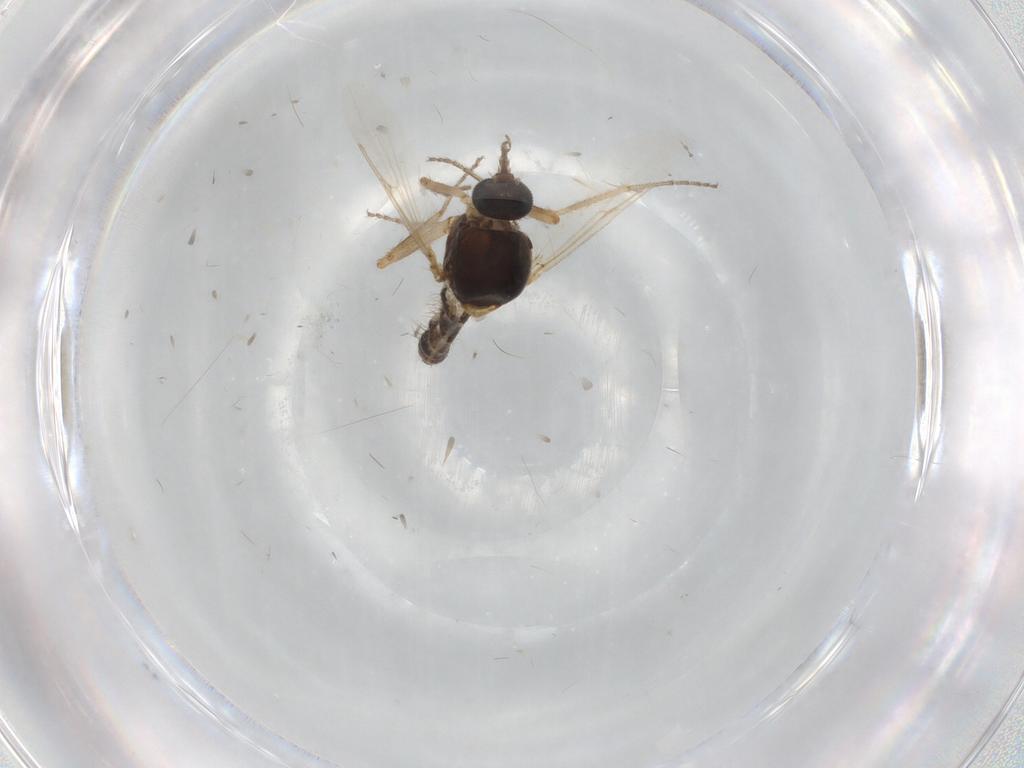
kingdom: Animalia
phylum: Arthropoda
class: Insecta
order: Diptera
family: Ceratopogonidae
